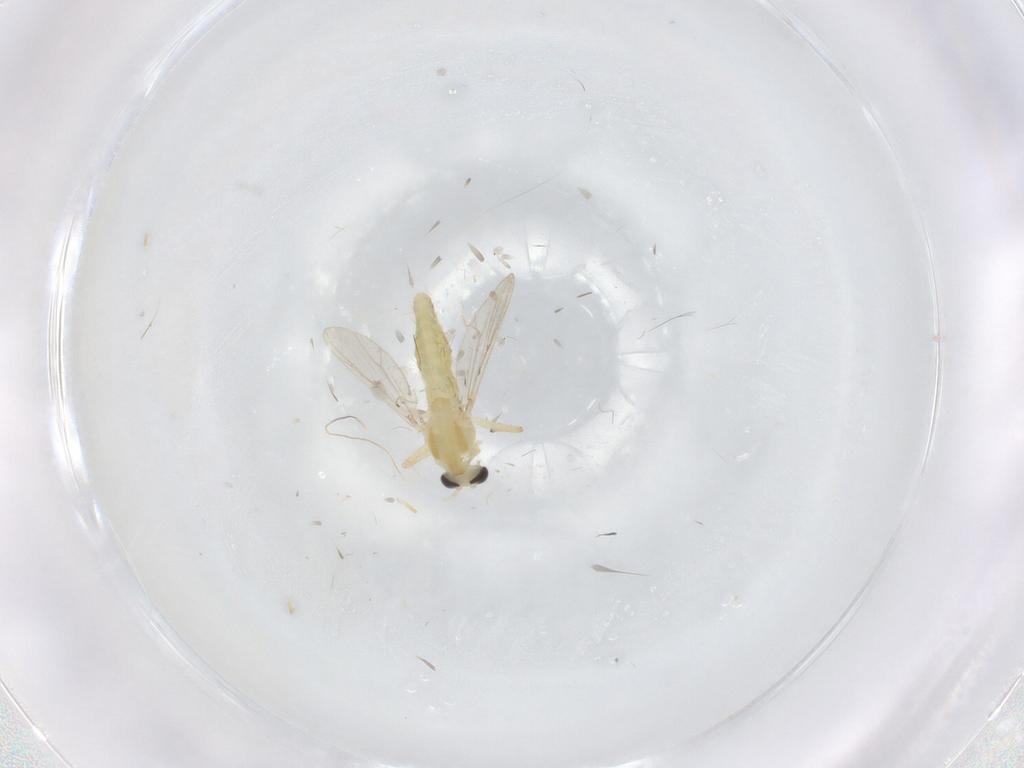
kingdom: Animalia
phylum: Arthropoda
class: Insecta
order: Diptera
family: Chironomidae
